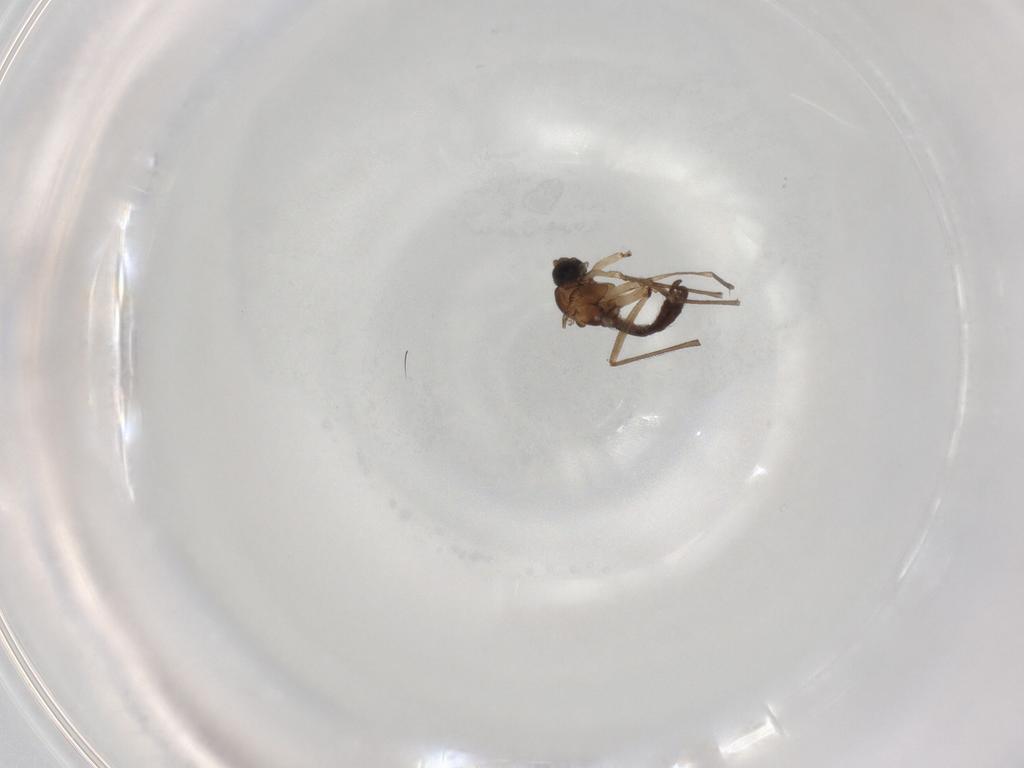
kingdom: Animalia
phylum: Arthropoda
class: Insecta
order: Diptera
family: Sciaridae
